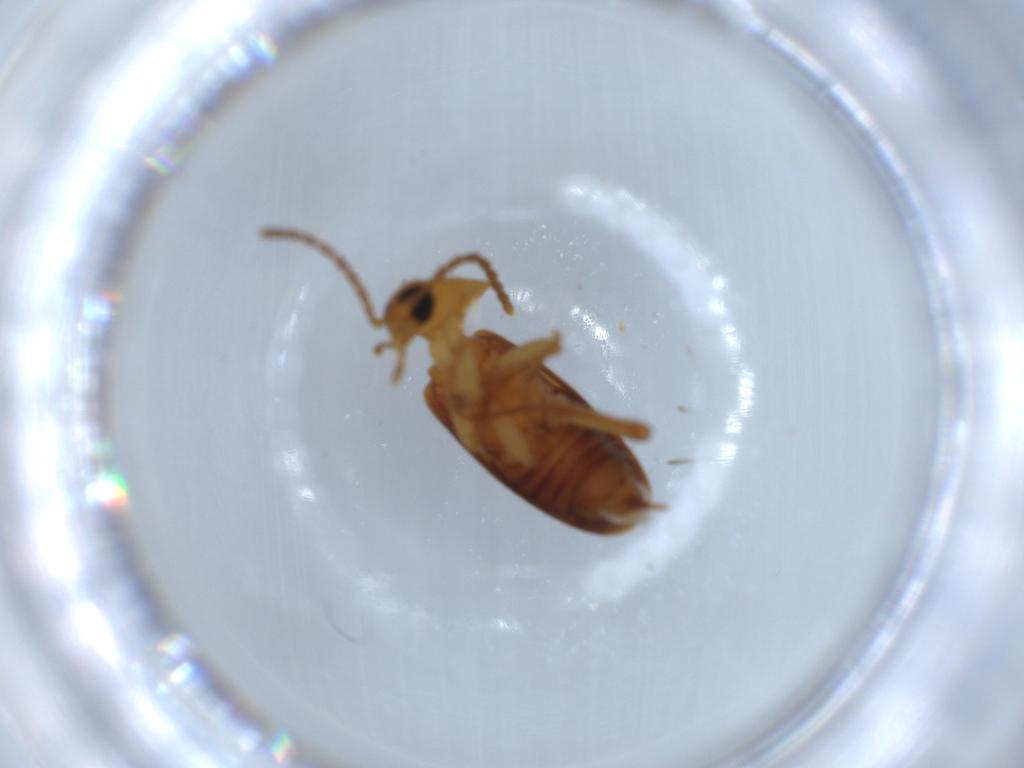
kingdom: Animalia
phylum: Arthropoda
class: Insecta
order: Coleoptera
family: Scraptiidae
